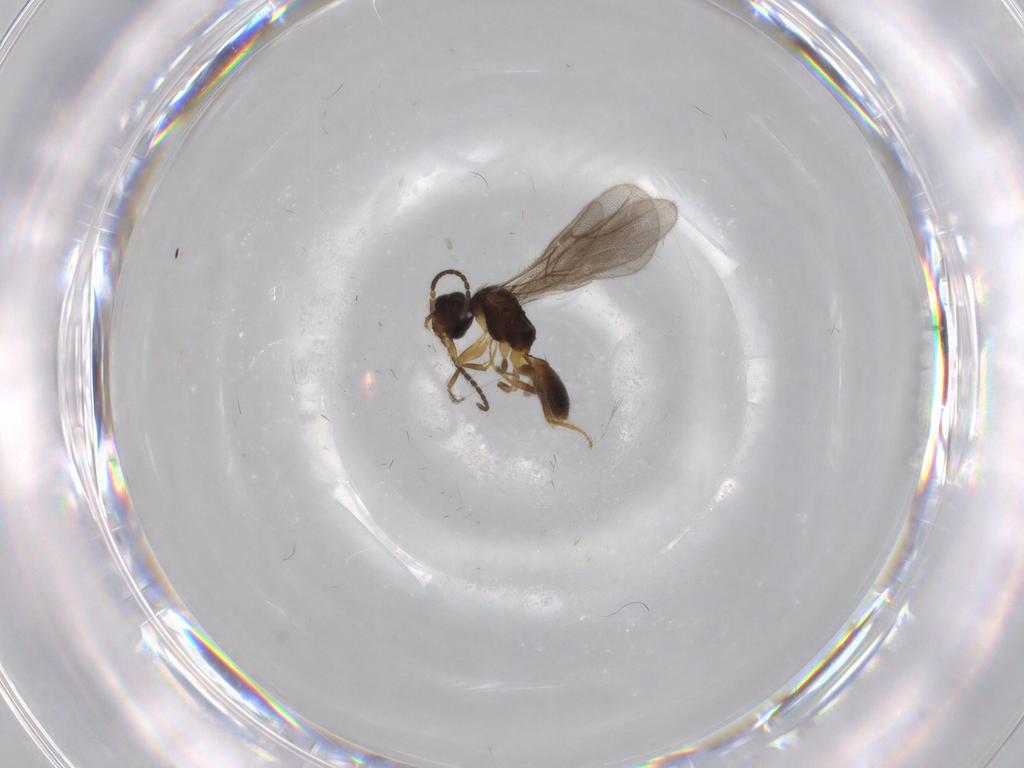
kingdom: Animalia
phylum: Arthropoda
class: Insecta
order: Hymenoptera
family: Bethylidae
